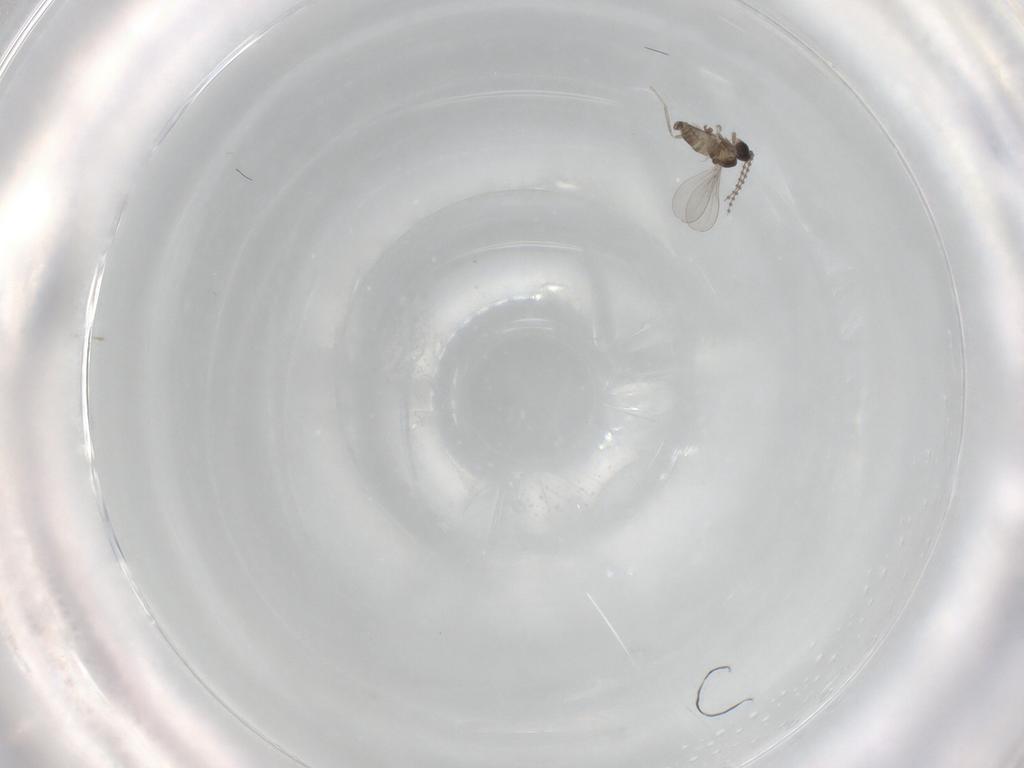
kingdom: Animalia
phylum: Arthropoda
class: Insecta
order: Diptera
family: Cecidomyiidae
